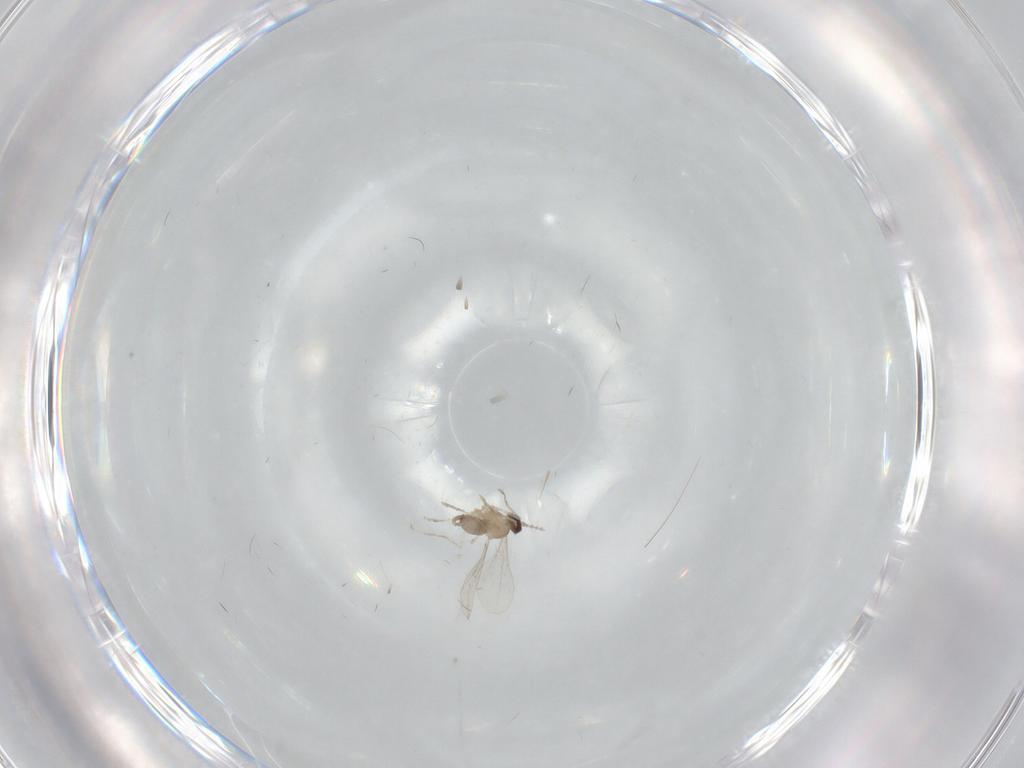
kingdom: Animalia
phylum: Arthropoda
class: Insecta
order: Diptera
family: Cecidomyiidae
